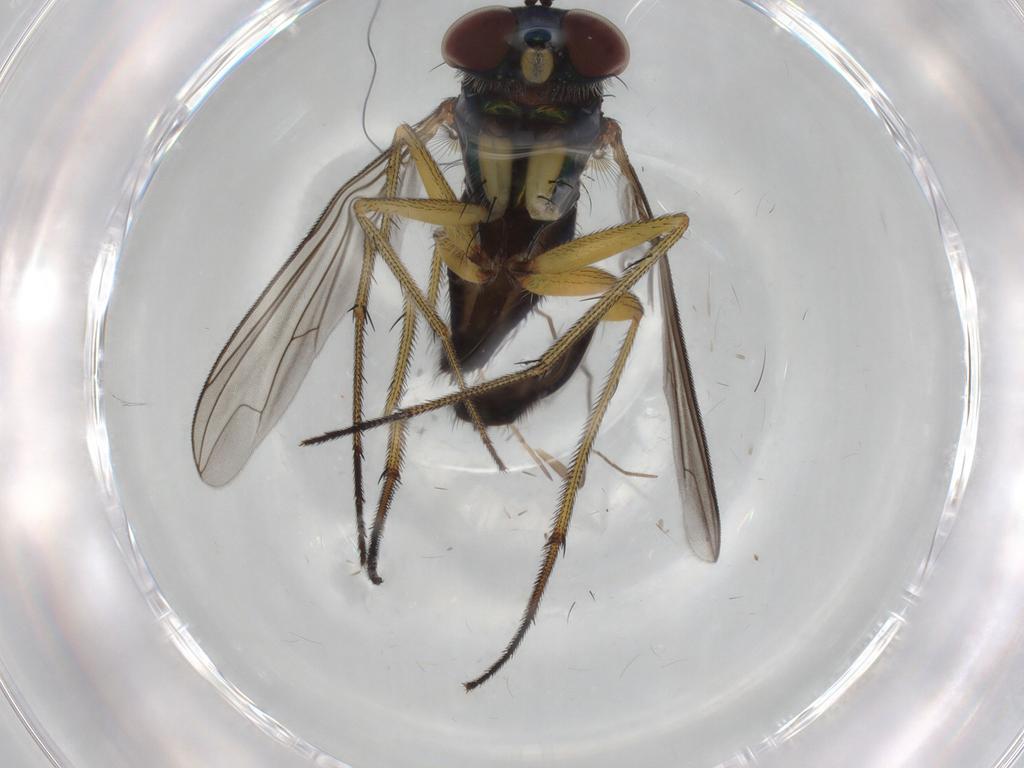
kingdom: Animalia
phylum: Arthropoda
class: Insecta
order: Diptera
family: Dolichopodidae
